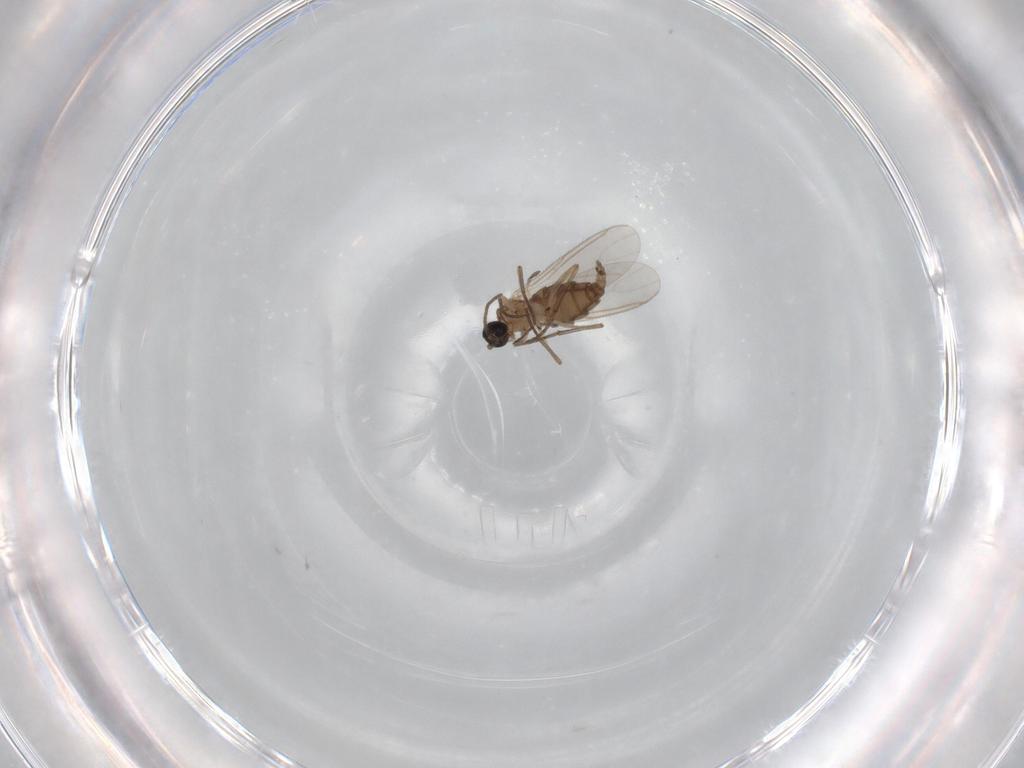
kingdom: Animalia
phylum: Arthropoda
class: Insecta
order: Diptera
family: Sciaridae
